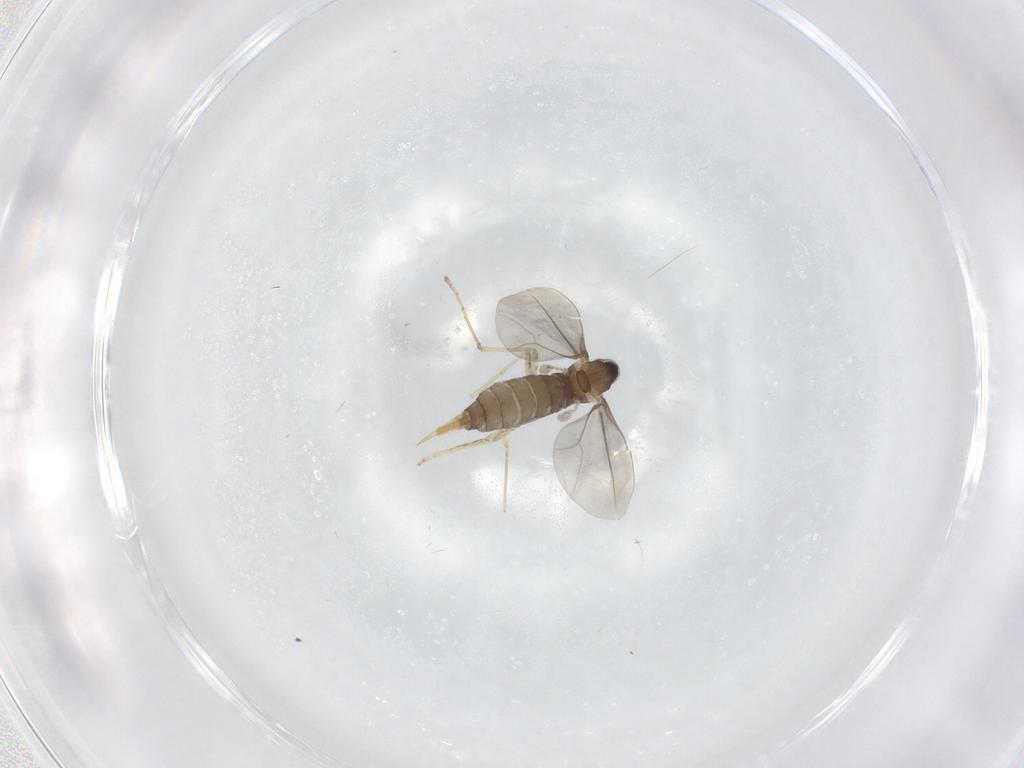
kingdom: Animalia
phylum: Arthropoda
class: Insecta
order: Diptera
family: Cecidomyiidae
